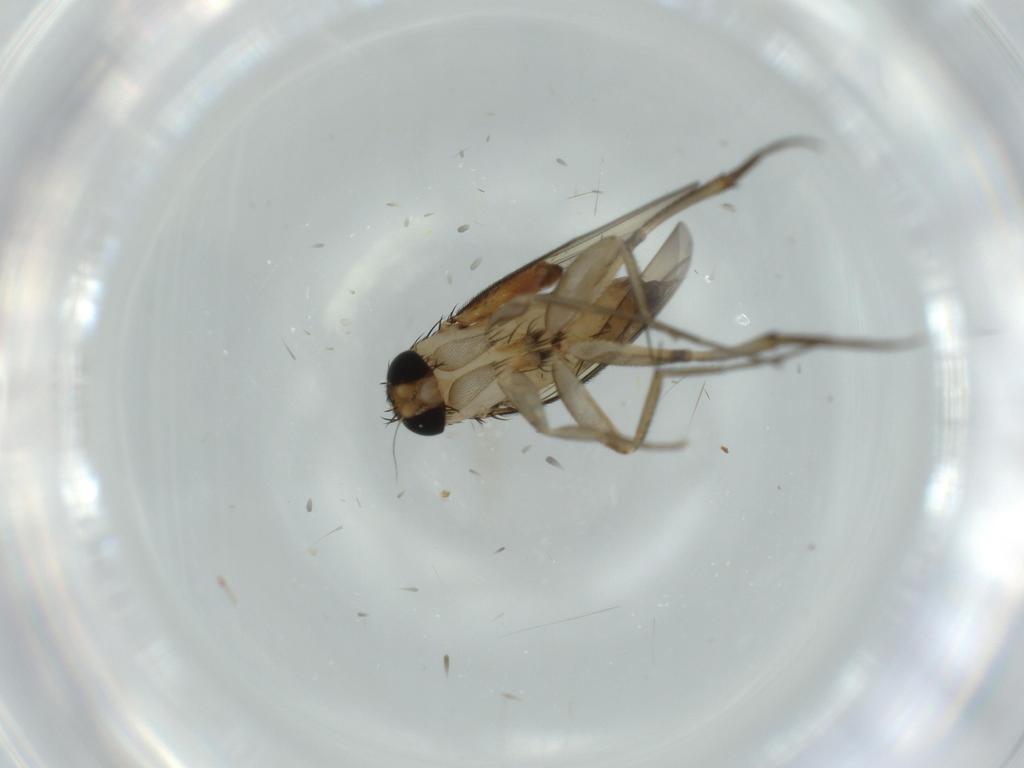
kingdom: Animalia
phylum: Arthropoda
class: Insecta
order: Diptera
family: Phoridae
